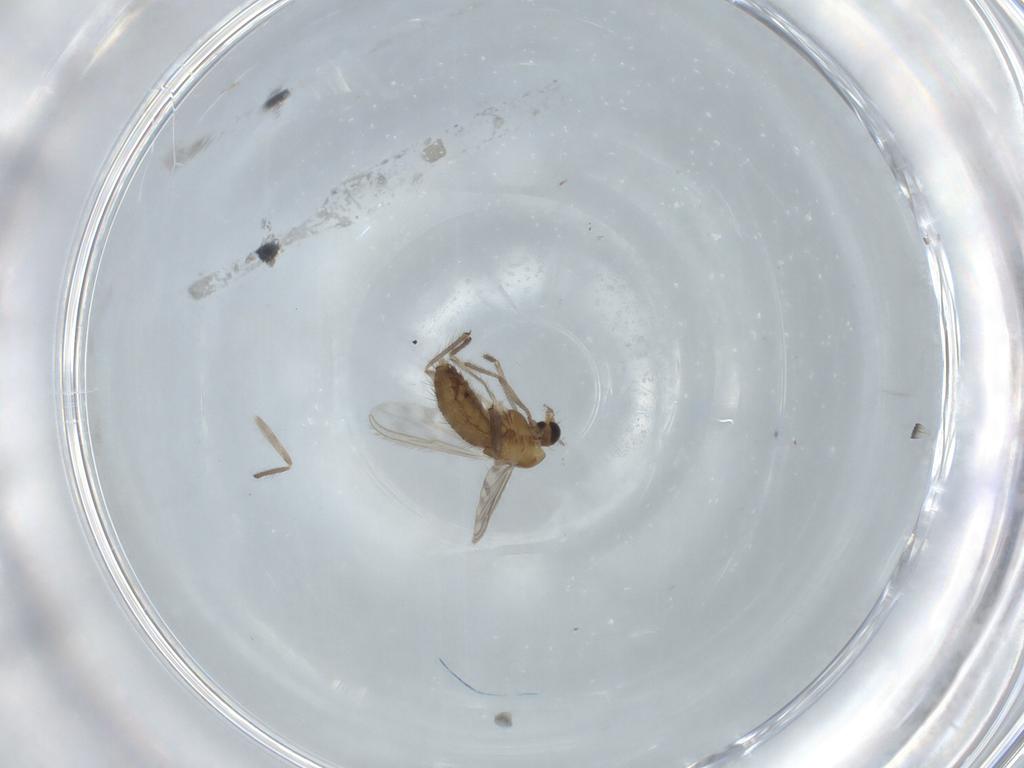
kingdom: Animalia
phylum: Arthropoda
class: Insecta
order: Diptera
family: Chironomidae
